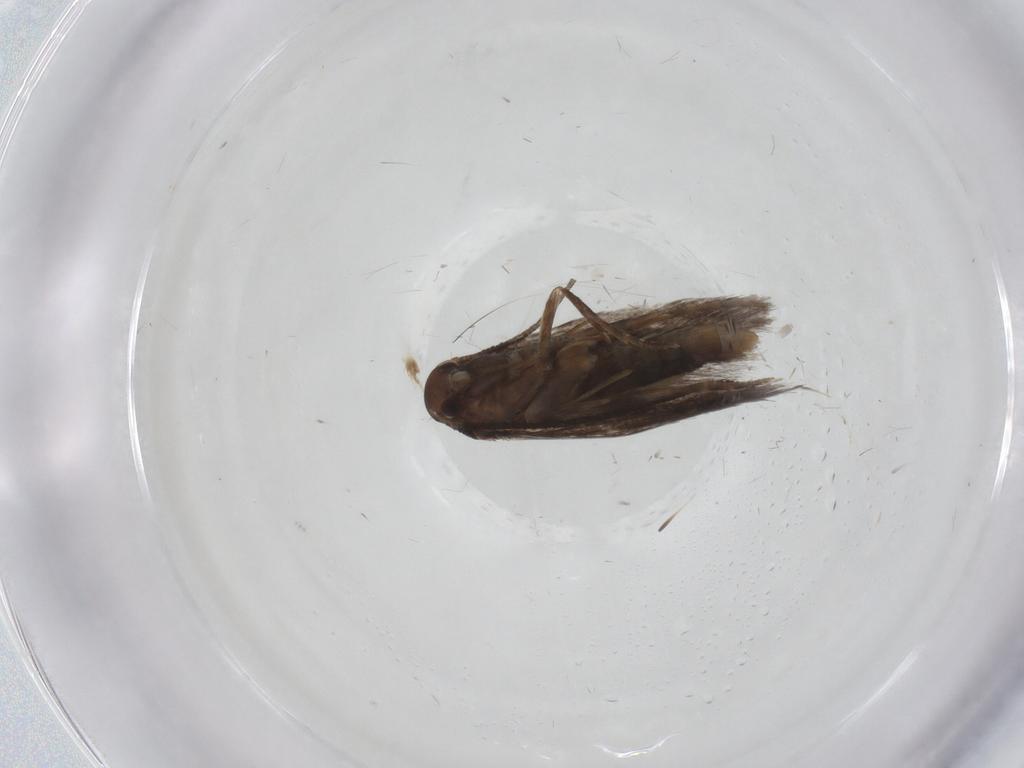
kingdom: Animalia
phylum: Arthropoda
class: Insecta
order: Lepidoptera
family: Elachistidae
